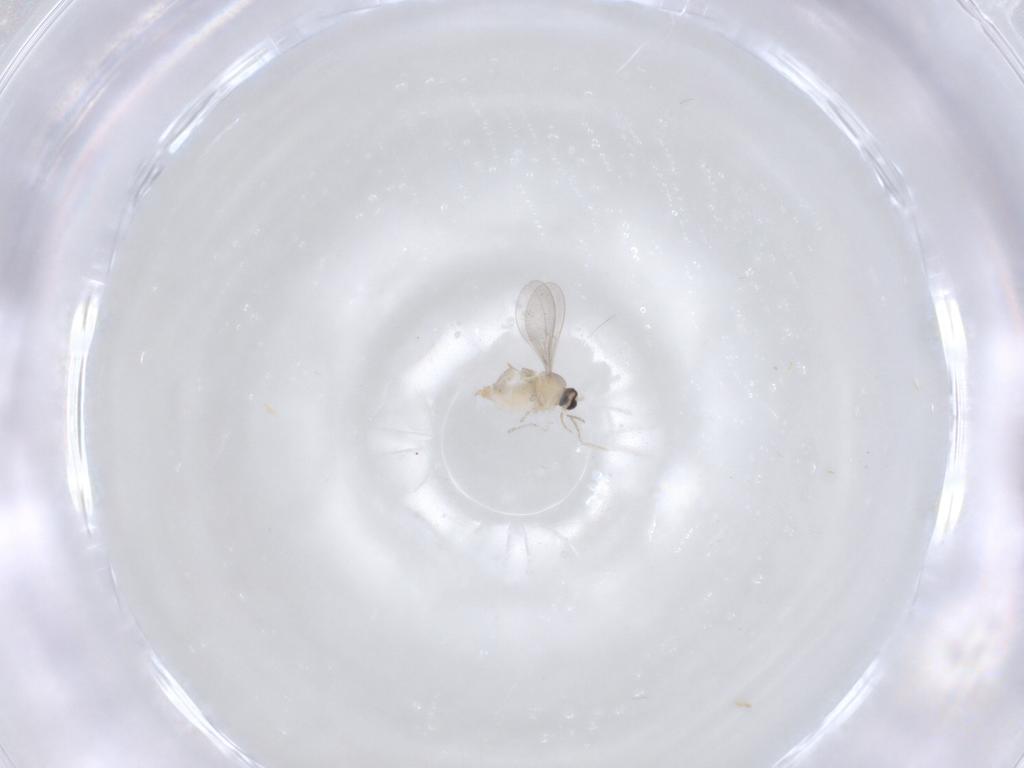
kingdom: Animalia
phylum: Arthropoda
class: Insecta
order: Diptera
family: Cecidomyiidae
